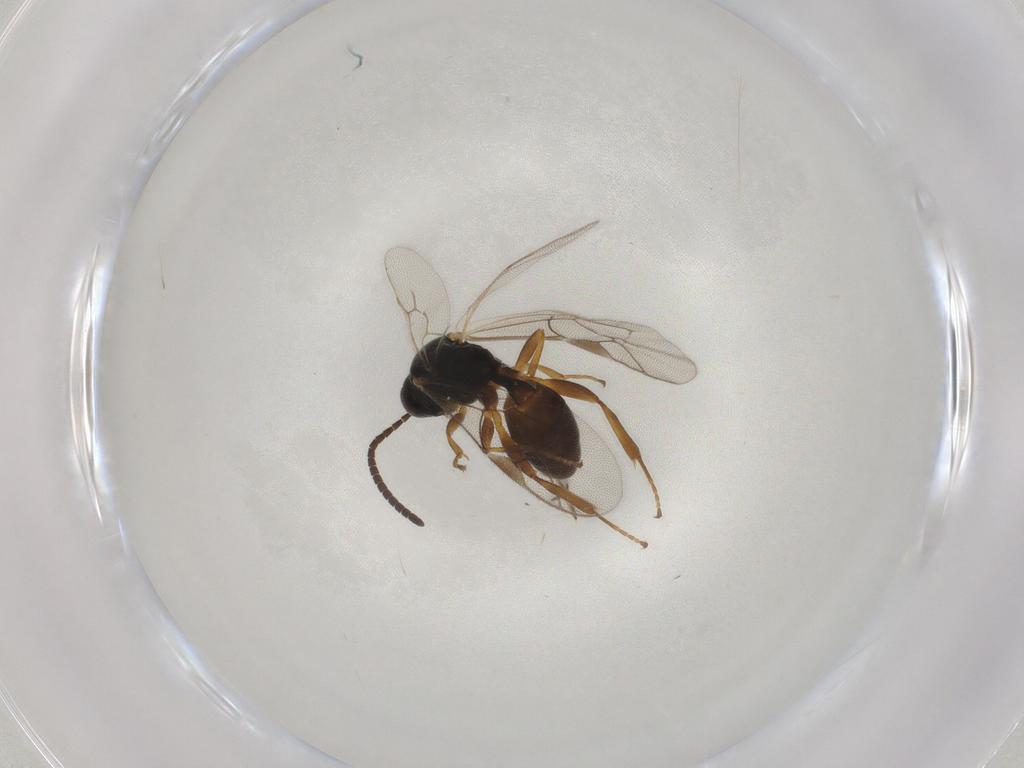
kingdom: Animalia
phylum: Arthropoda
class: Insecta
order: Hymenoptera
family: Ichneumonidae
